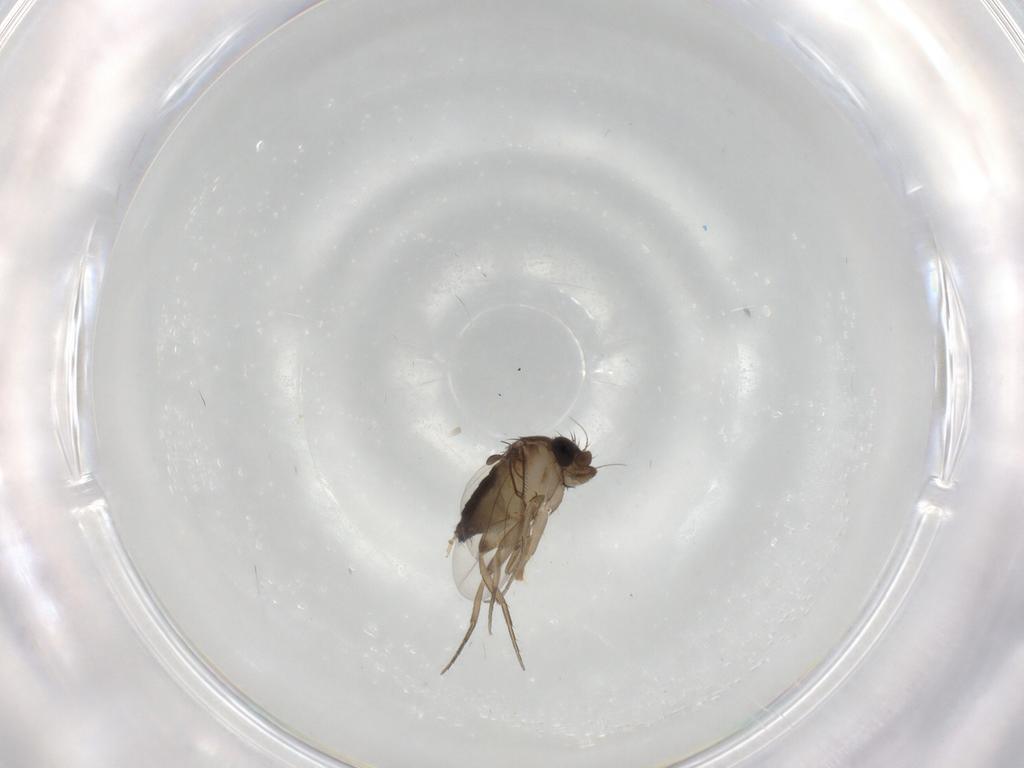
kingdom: Animalia
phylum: Arthropoda
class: Insecta
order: Diptera
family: Phoridae
